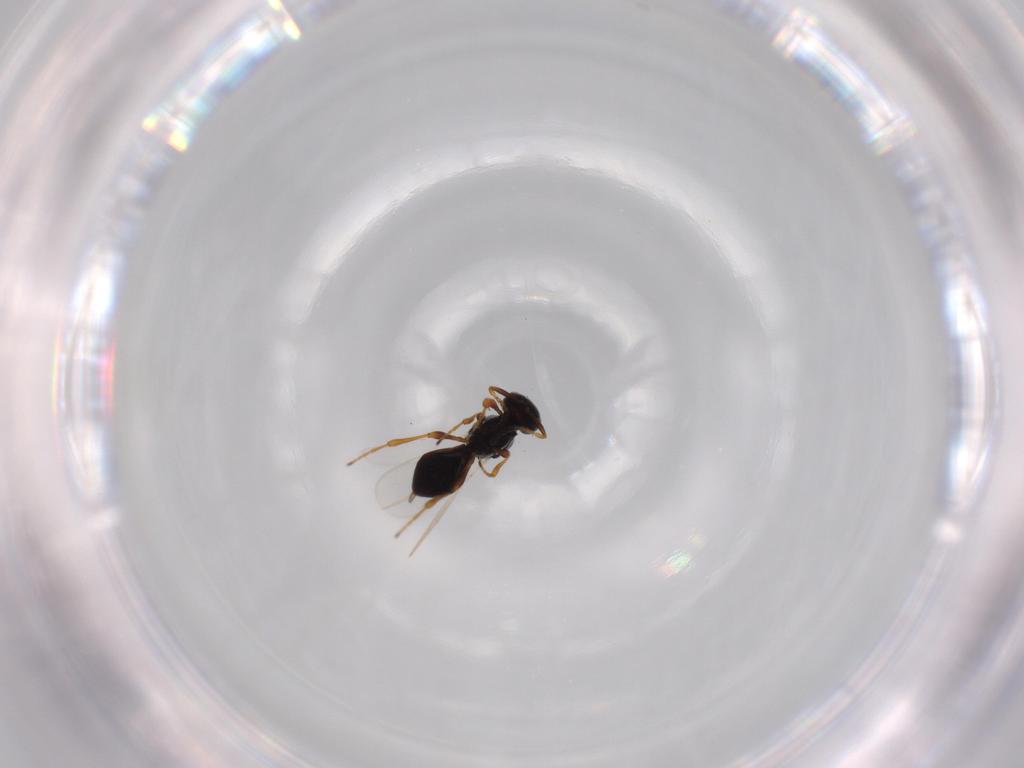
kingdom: Animalia
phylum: Arthropoda
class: Insecta
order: Hymenoptera
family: Platygastridae
